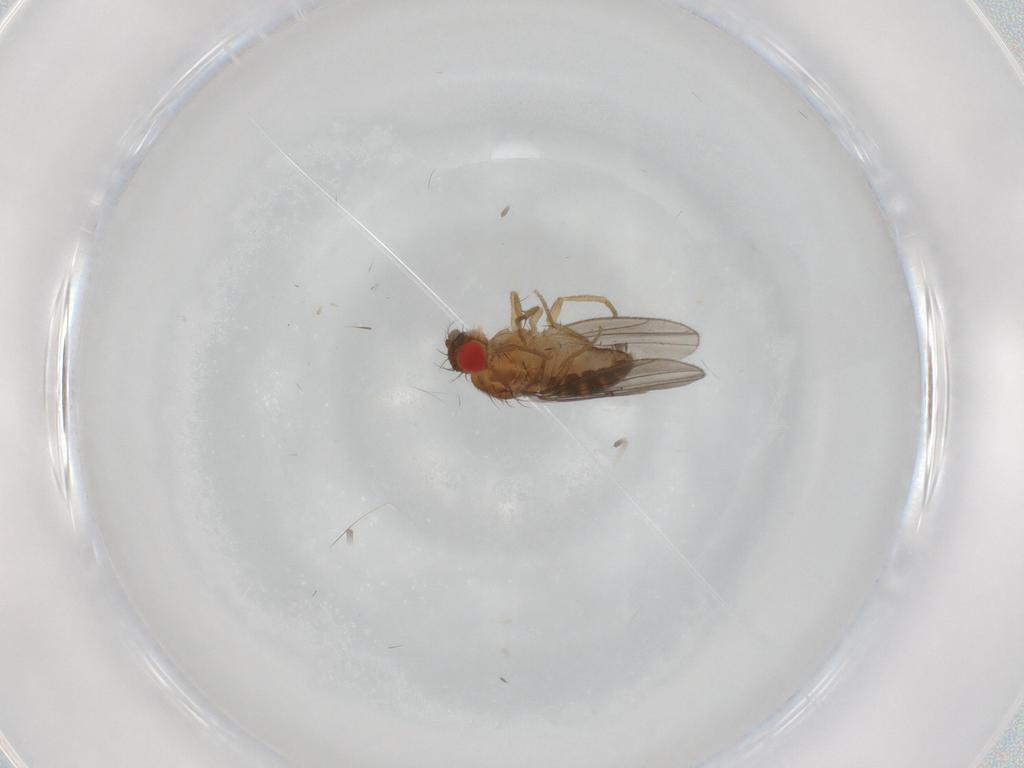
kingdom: Animalia
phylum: Arthropoda
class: Insecta
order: Diptera
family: Drosophilidae
